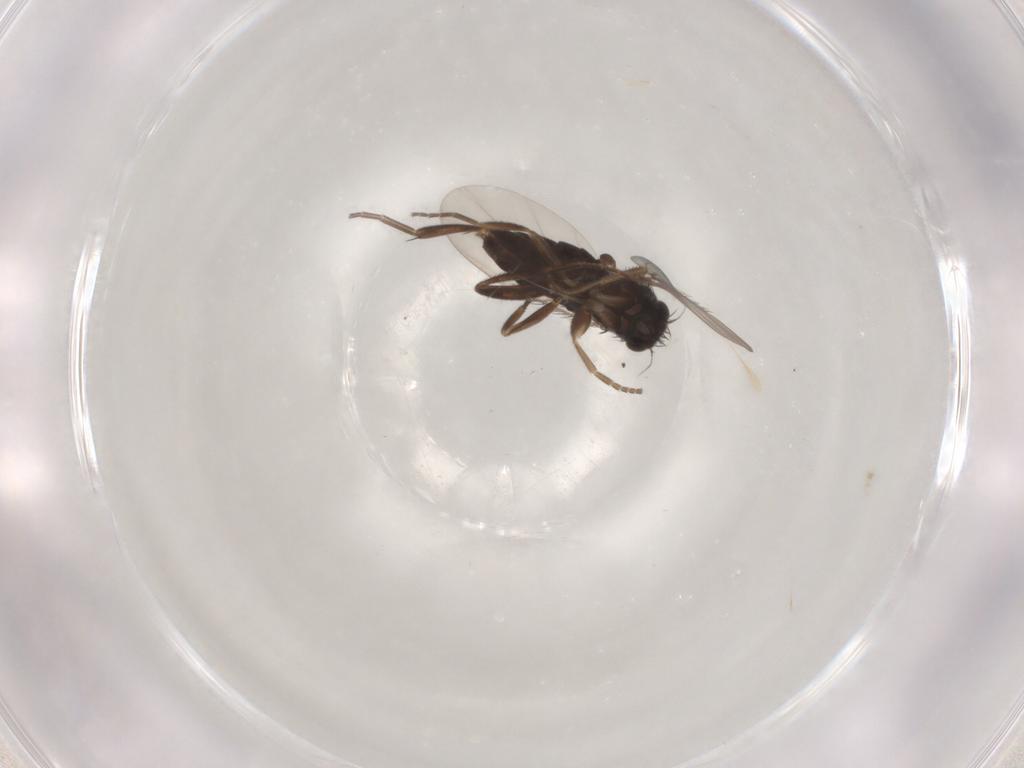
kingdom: Animalia
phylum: Arthropoda
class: Insecta
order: Diptera
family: Phoridae
